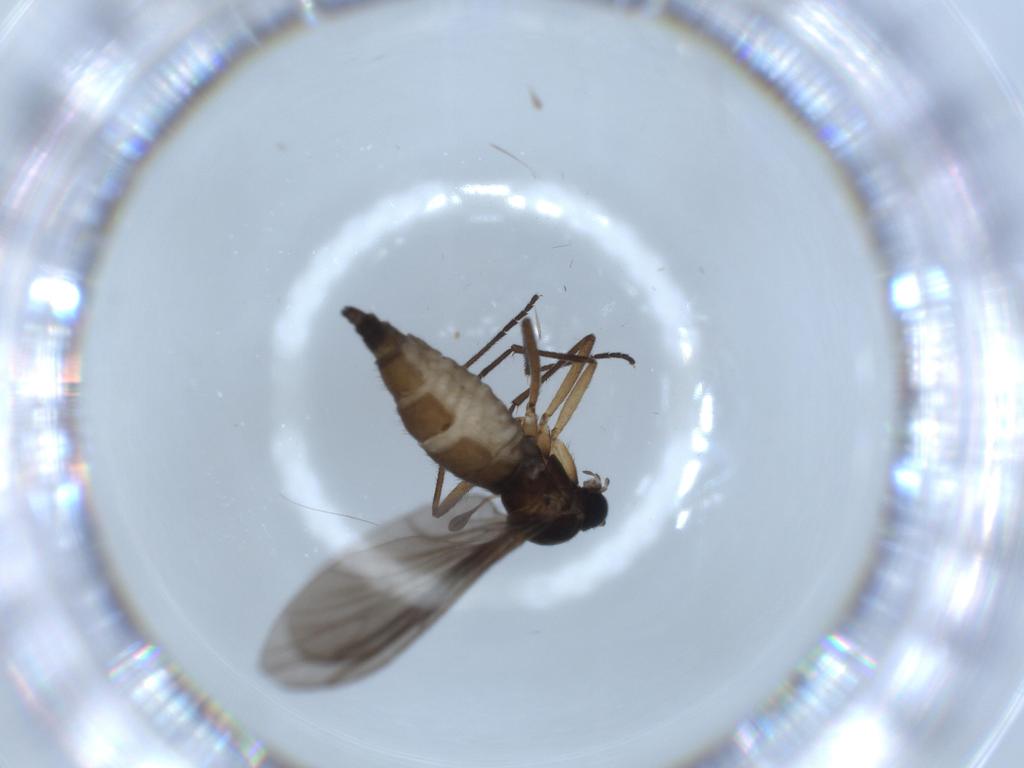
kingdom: Animalia
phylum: Arthropoda
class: Insecta
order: Diptera
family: Sciaridae
